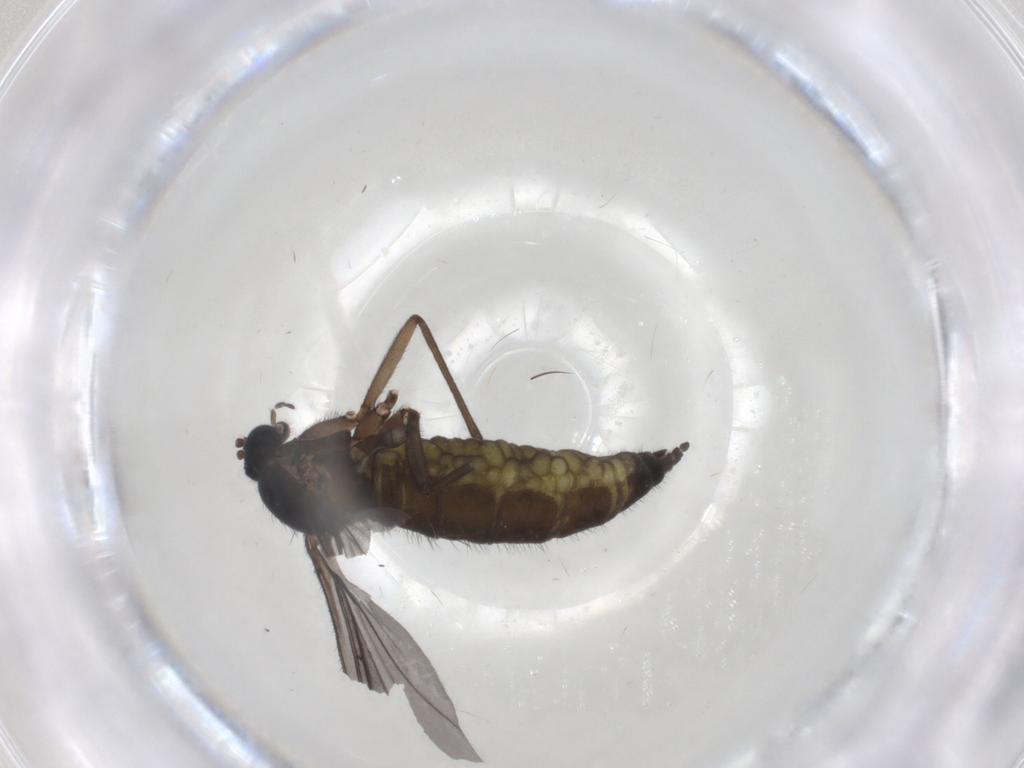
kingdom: Animalia
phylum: Arthropoda
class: Insecta
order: Diptera
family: Sciaridae
